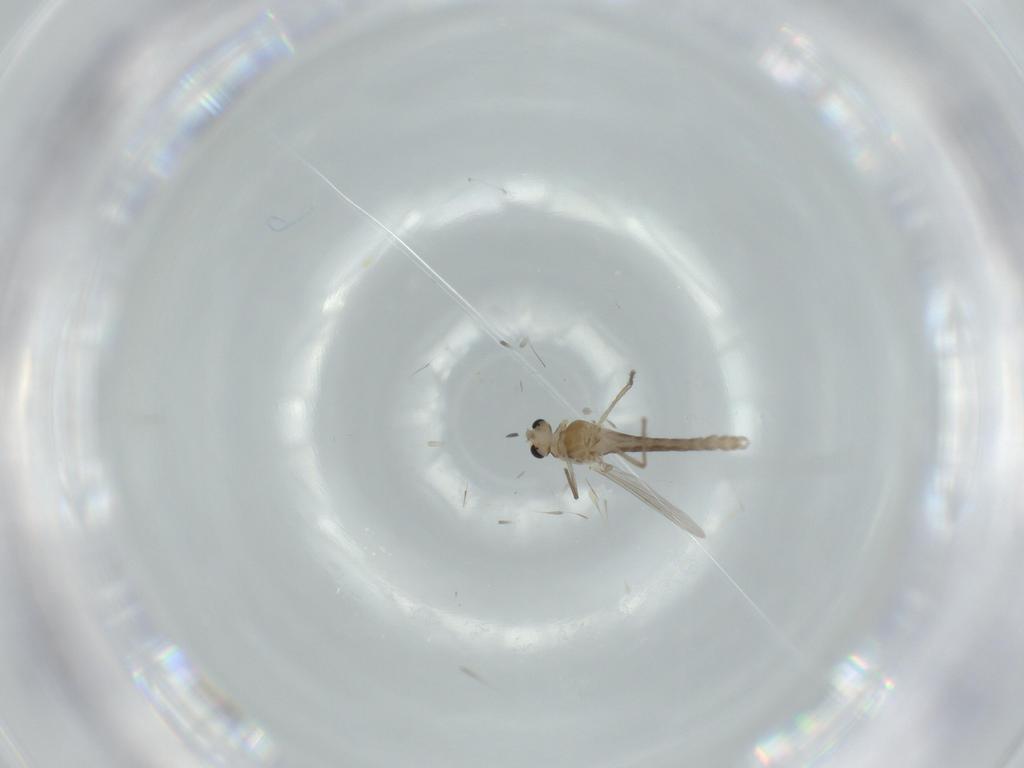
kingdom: Animalia
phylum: Arthropoda
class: Insecta
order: Diptera
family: Chironomidae
